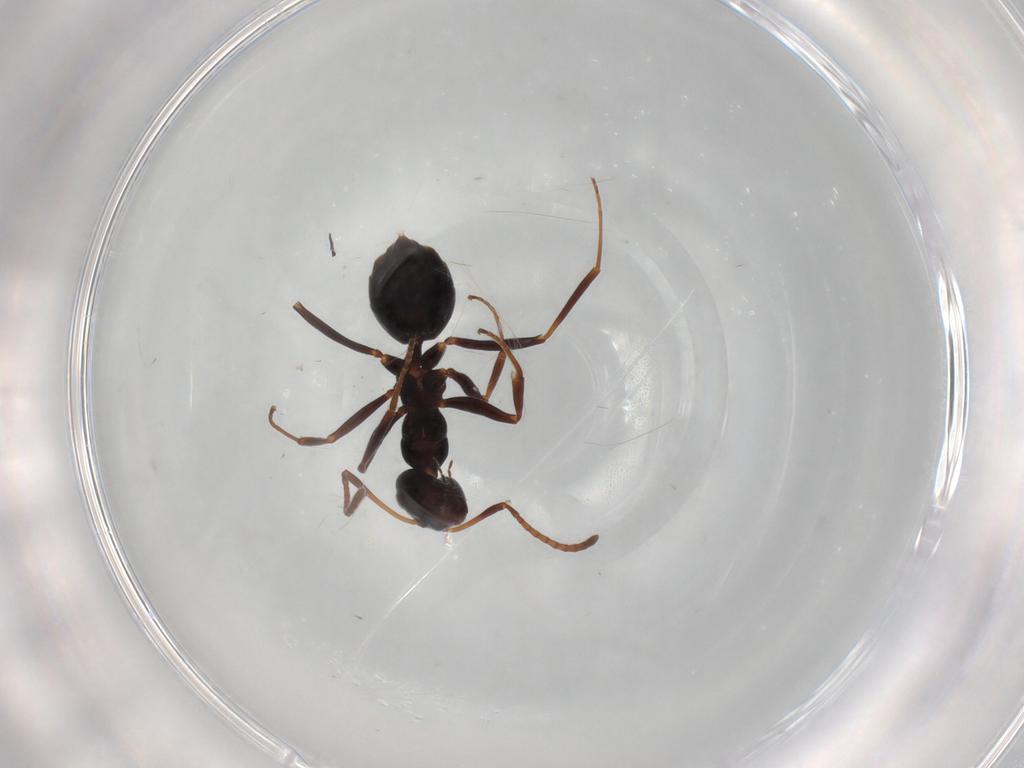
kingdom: Animalia
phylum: Arthropoda
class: Insecta
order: Hymenoptera
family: Formicidae
